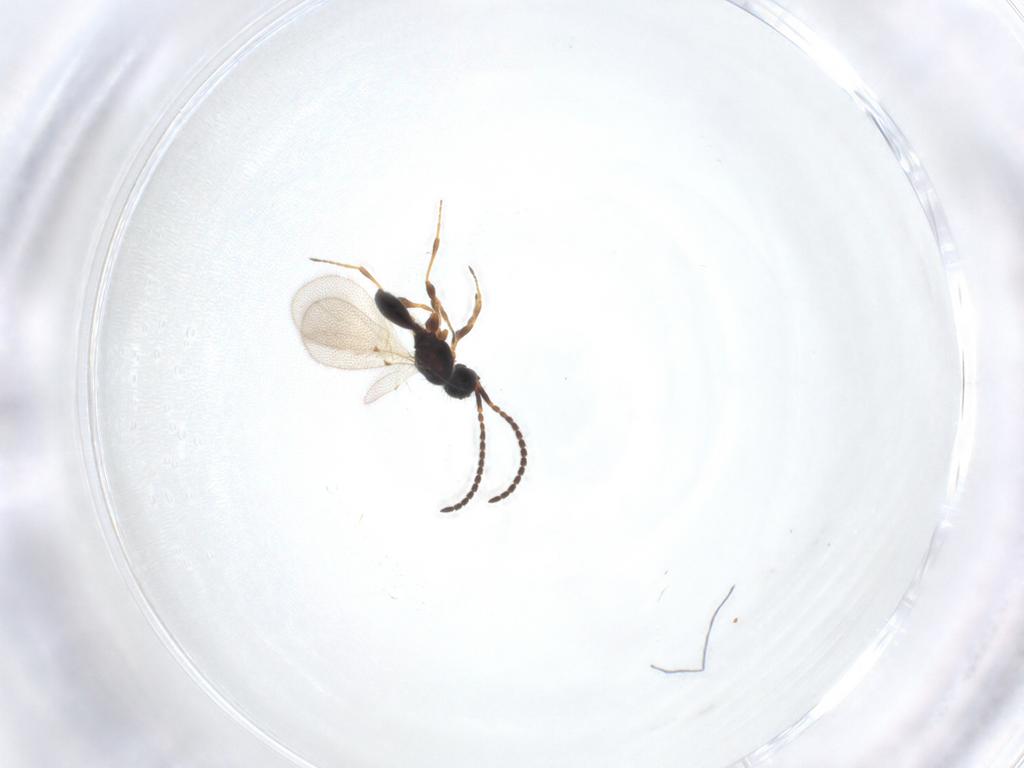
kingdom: Animalia
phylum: Arthropoda
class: Insecta
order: Hymenoptera
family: Diapriidae
